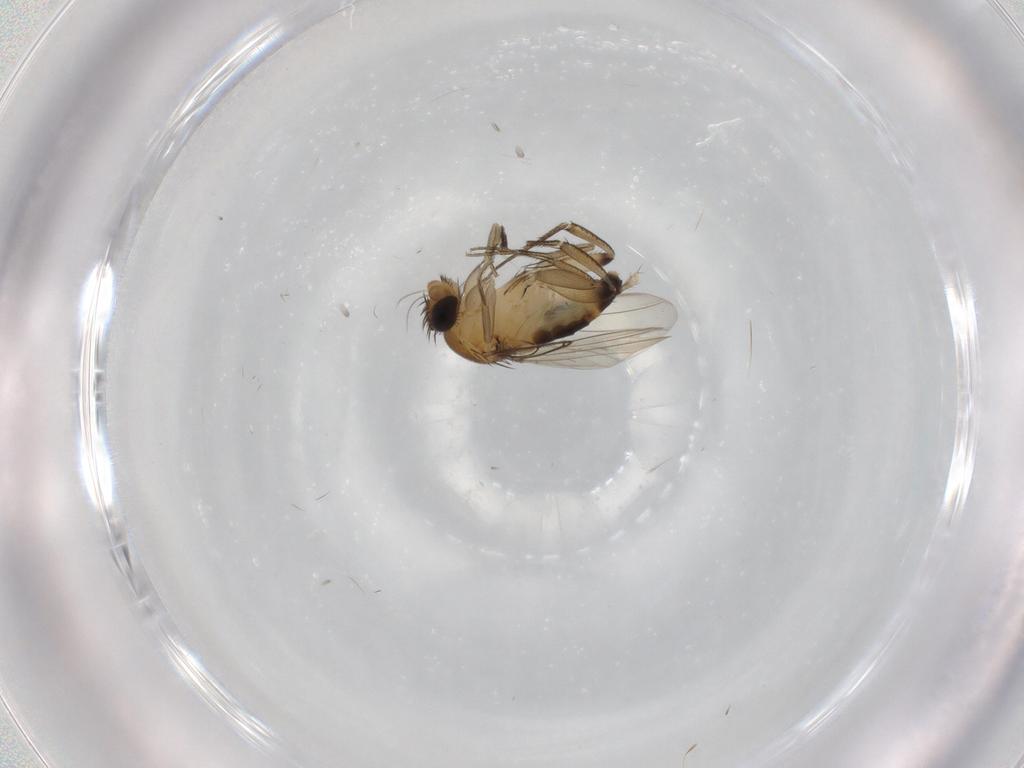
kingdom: Animalia
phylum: Arthropoda
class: Insecta
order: Diptera
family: Phoridae
